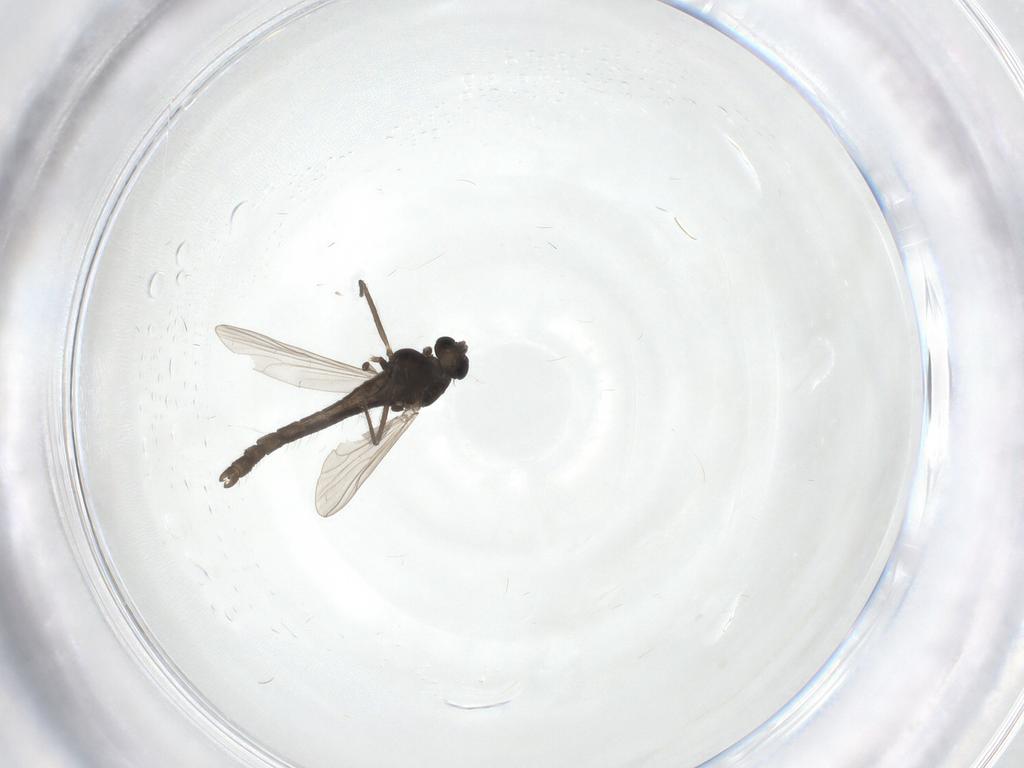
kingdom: Animalia
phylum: Arthropoda
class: Insecta
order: Diptera
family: Chironomidae
